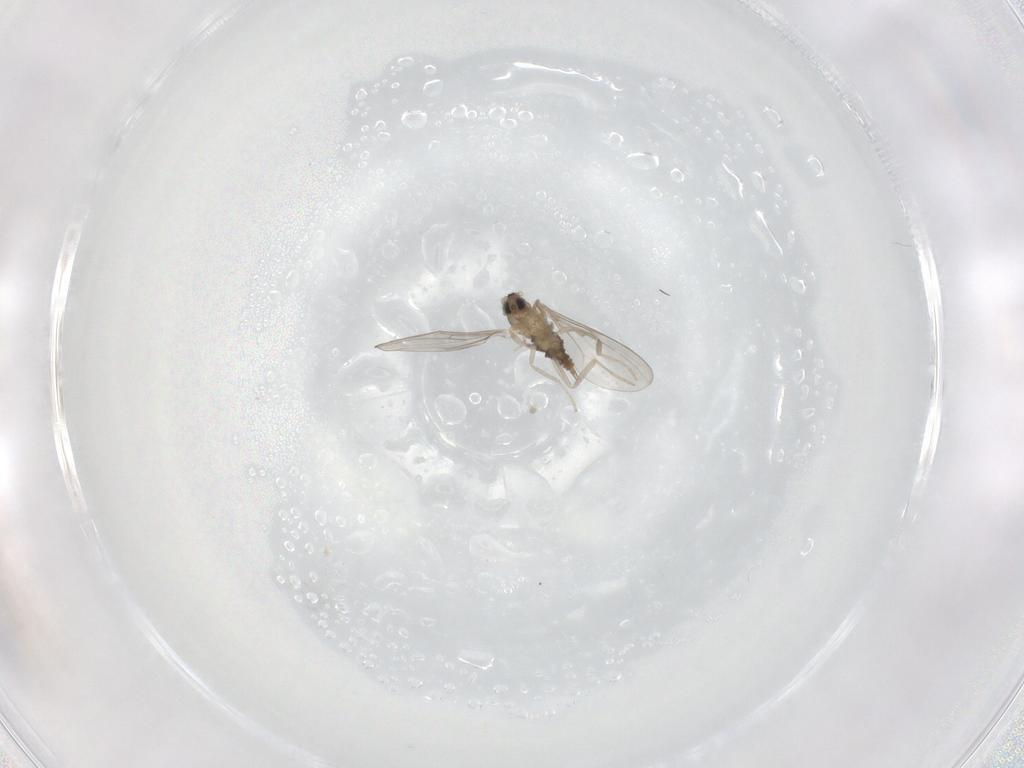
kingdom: Animalia
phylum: Arthropoda
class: Insecta
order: Diptera
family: Cecidomyiidae
